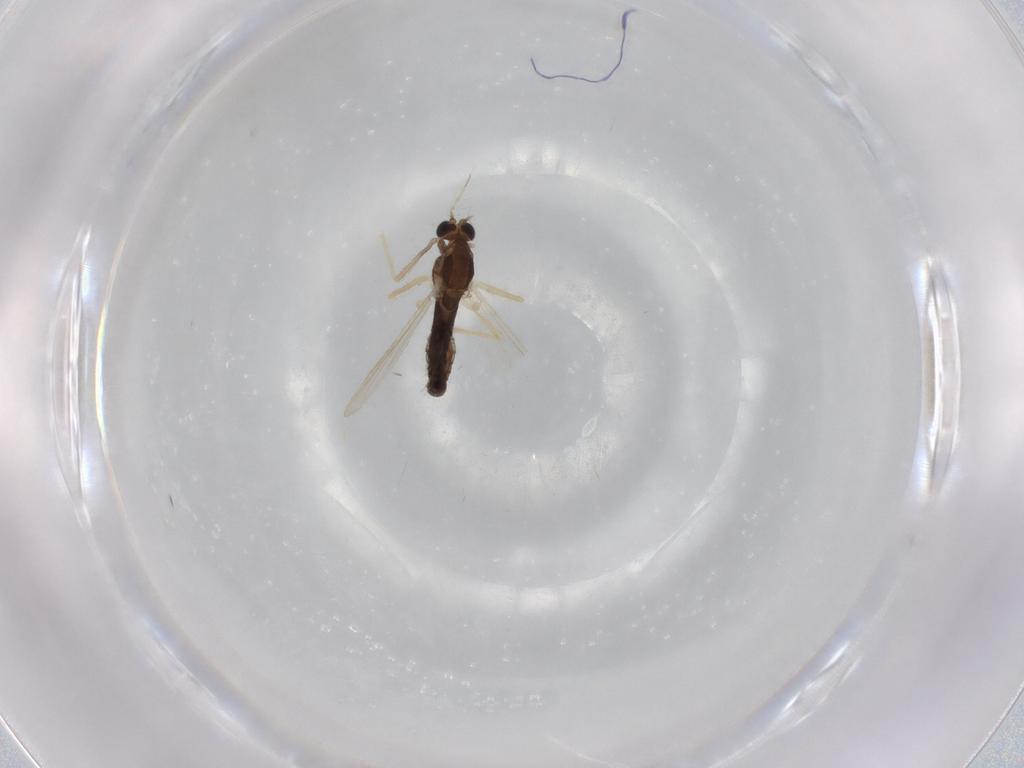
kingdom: Animalia
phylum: Arthropoda
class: Insecta
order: Diptera
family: Chironomidae
